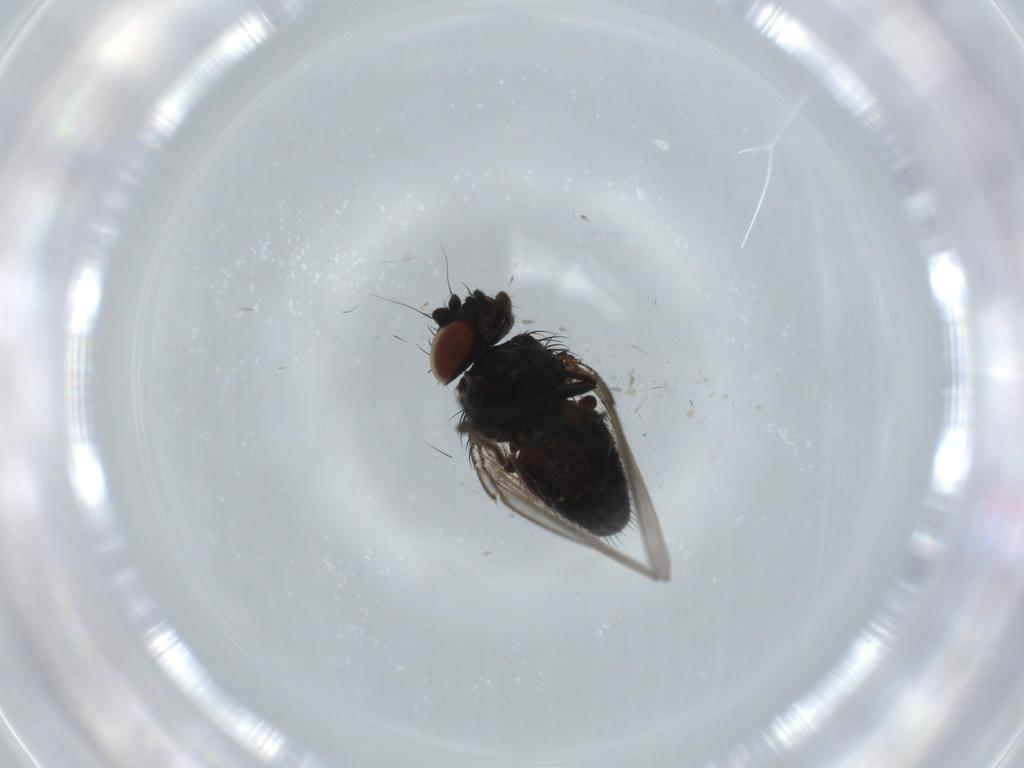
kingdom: Animalia
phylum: Arthropoda
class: Insecta
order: Diptera
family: Milichiidae
